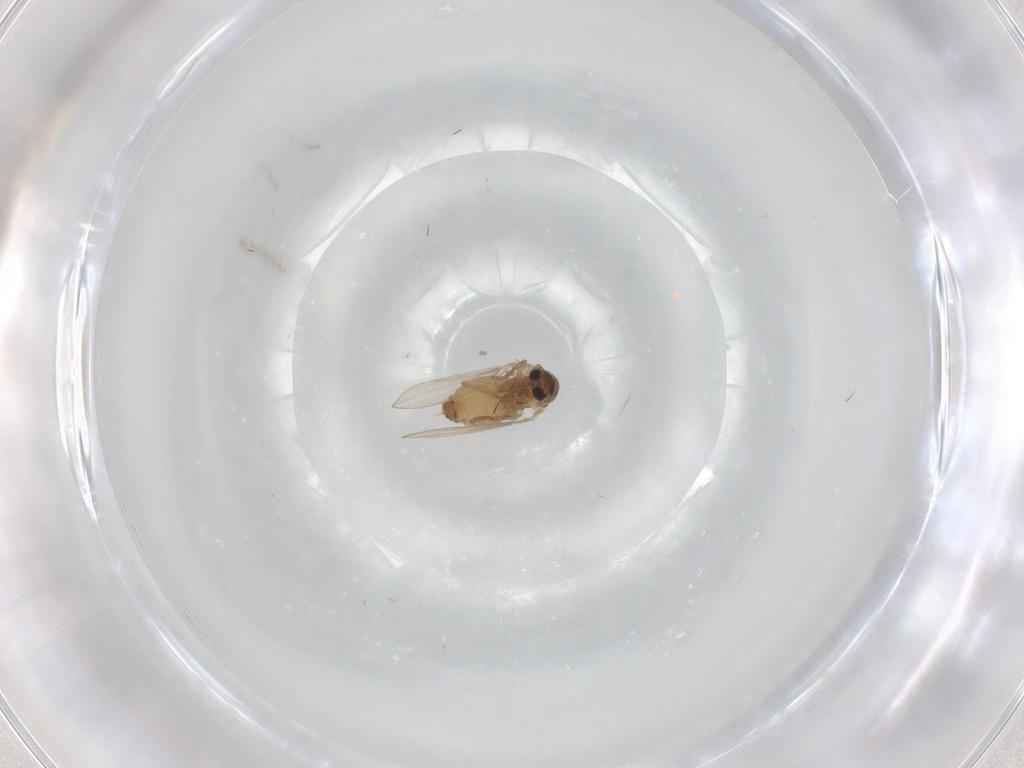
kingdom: Animalia
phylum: Arthropoda
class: Insecta
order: Diptera
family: Psychodidae
